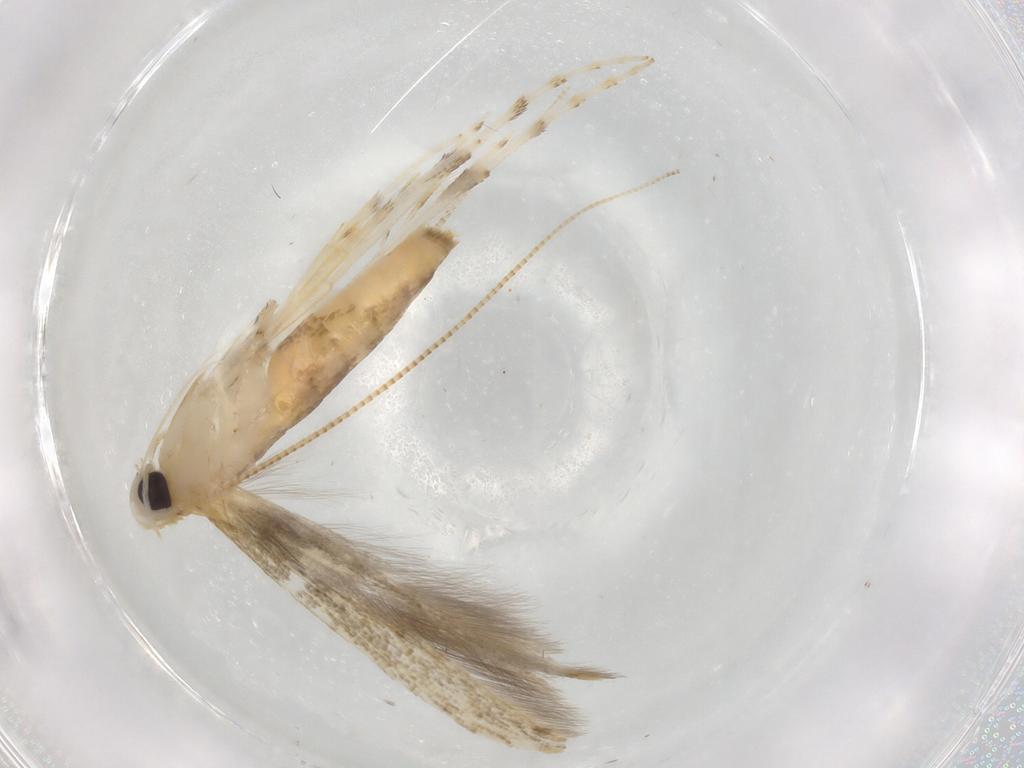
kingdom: Animalia
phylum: Arthropoda
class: Insecta
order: Lepidoptera
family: Gracillariidae
